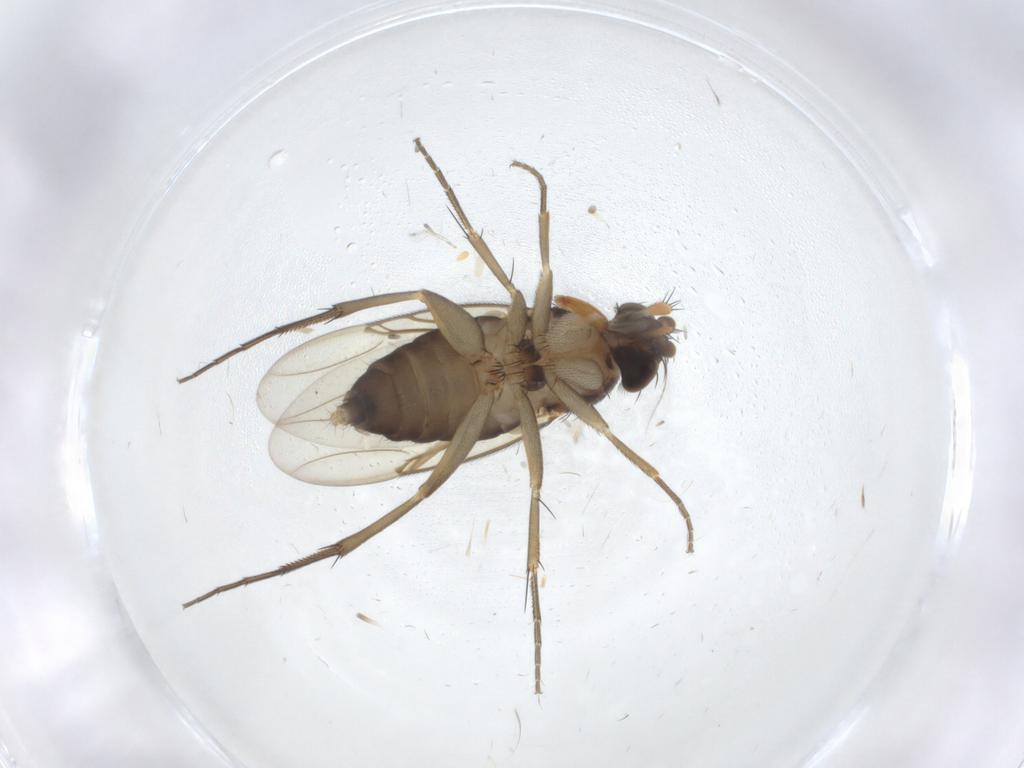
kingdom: Animalia
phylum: Arthropoda
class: Insecta
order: Diptera
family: Phoridae
